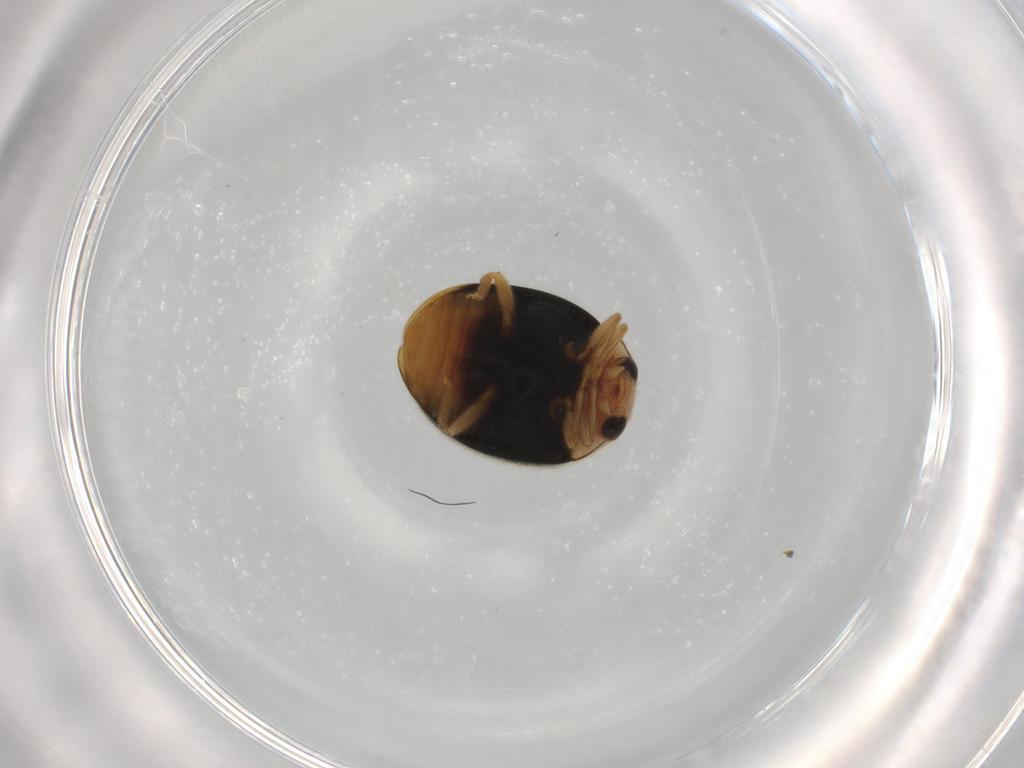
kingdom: Animalia
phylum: Arthropoda
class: Insecta
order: Coleoptera
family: Coccinellidae
